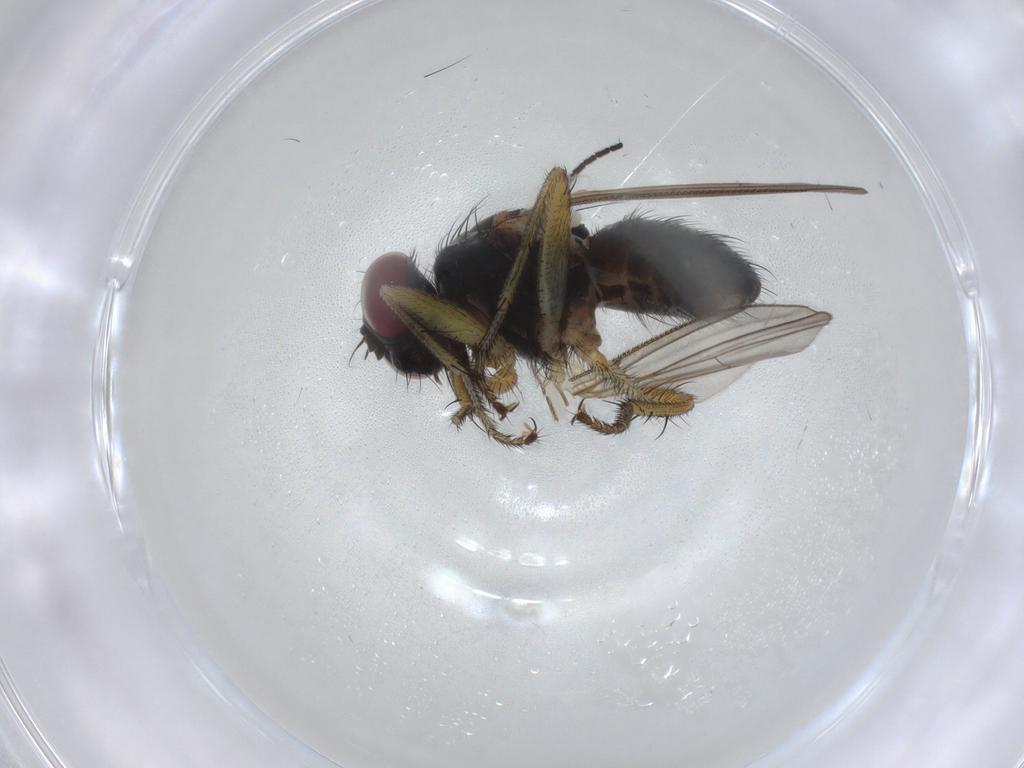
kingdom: Animalia
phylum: Arthropoda
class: Insecta
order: Diptera
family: Muscidae
